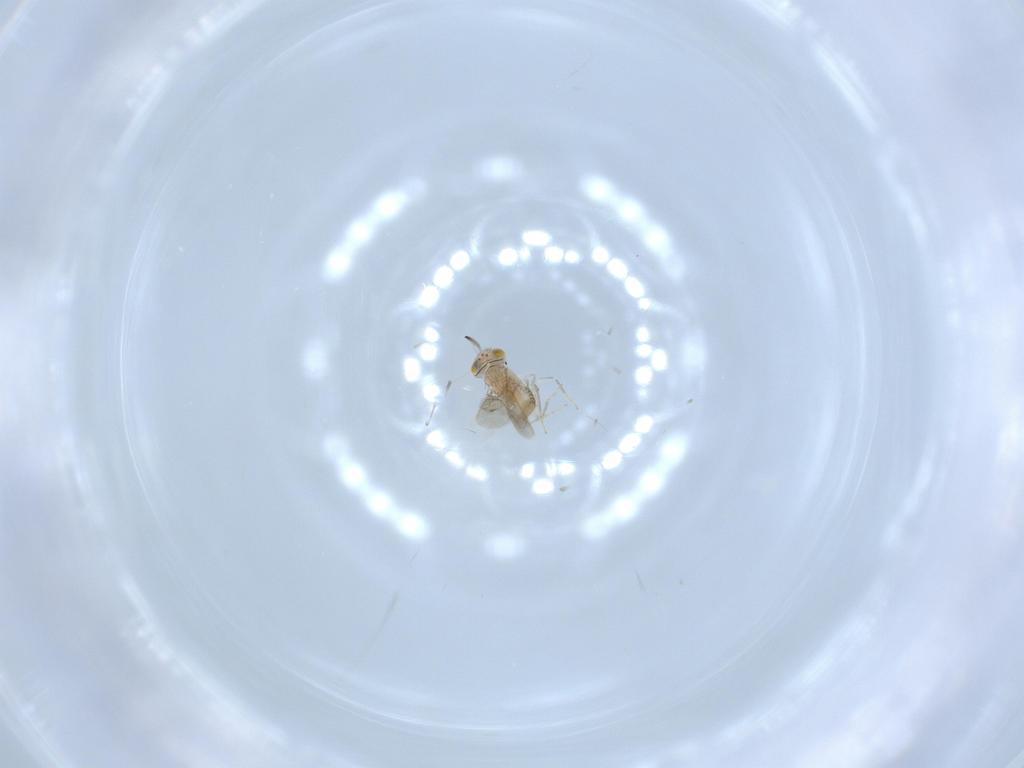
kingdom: Animalia
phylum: Arthropoda
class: Insecta
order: Hymenoptera
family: Aphelinidae
